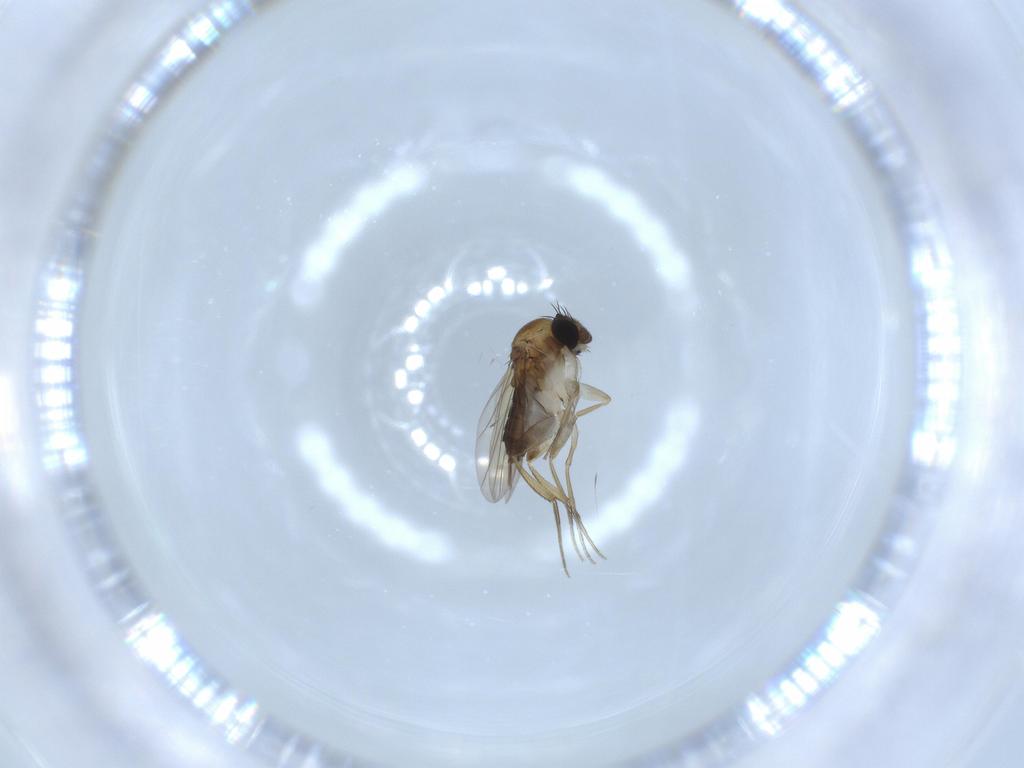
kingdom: Animalia
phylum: Arthropoda
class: Insecta
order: Diptera
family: Phoridae
